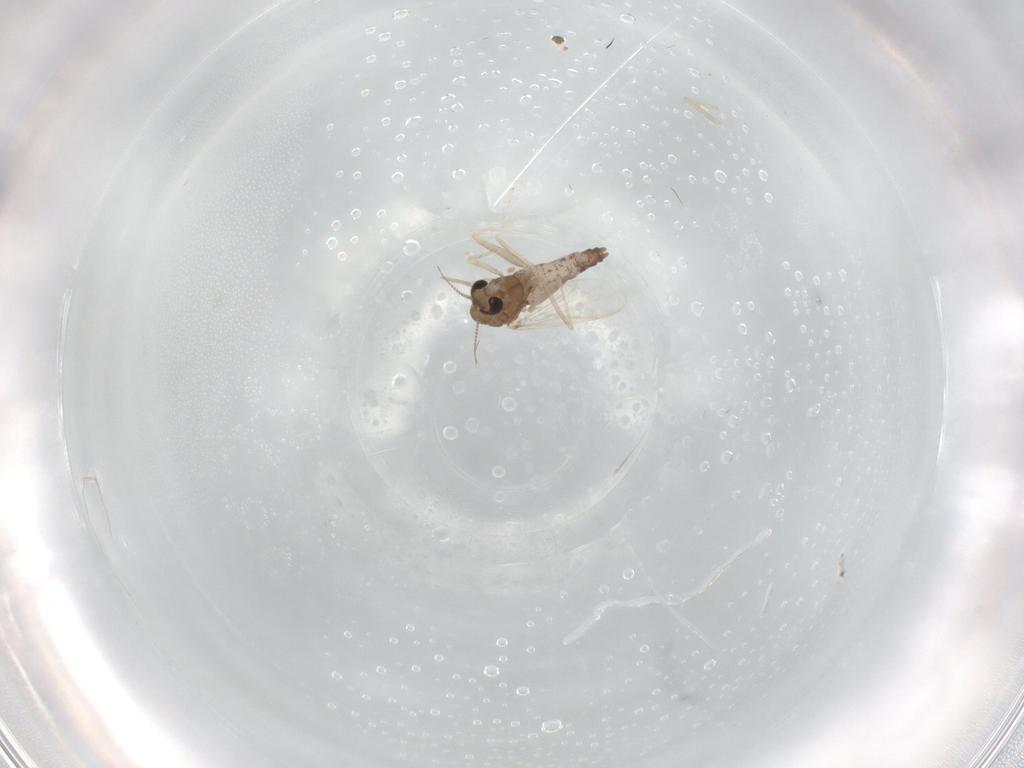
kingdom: Animalia
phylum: Arthropoda
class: Insecta
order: Diptera
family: Chironomidae
